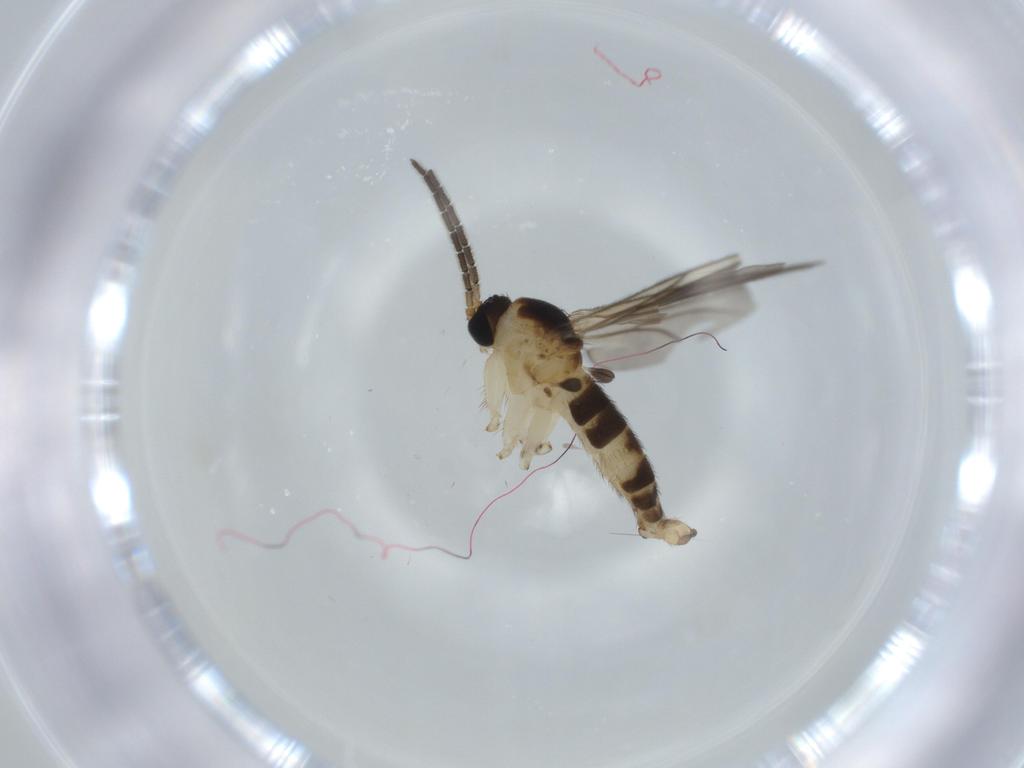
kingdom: Animalia
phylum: Arthropoda
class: Insecta
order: Diptera
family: Sciaridae
